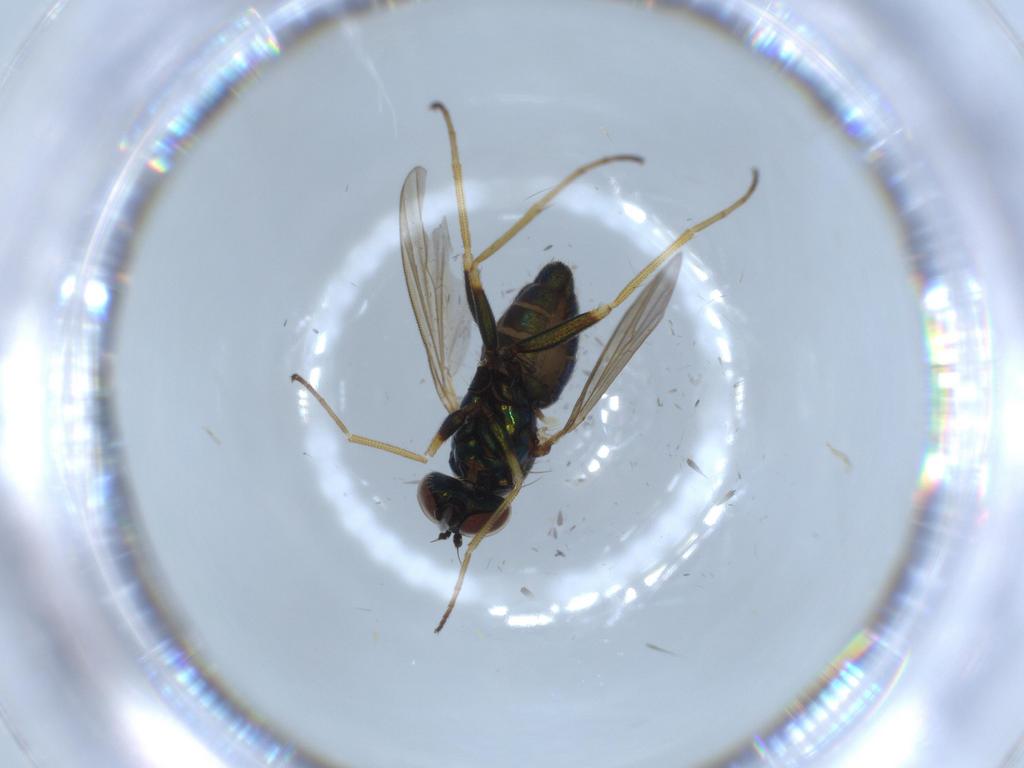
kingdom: Animalia
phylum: Arthropoda
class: Insecta
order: Diptera
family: Dolichopodidae
